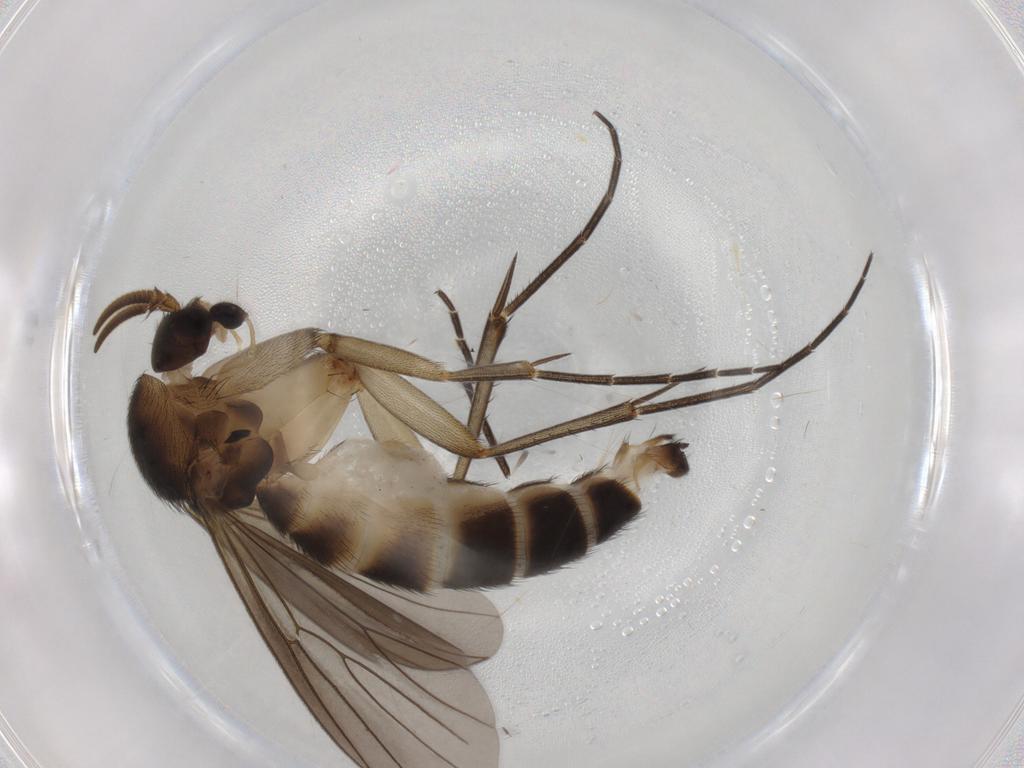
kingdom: Animalia
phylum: Arthropoda
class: Insecta
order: Diptera
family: Mycetophilidae
